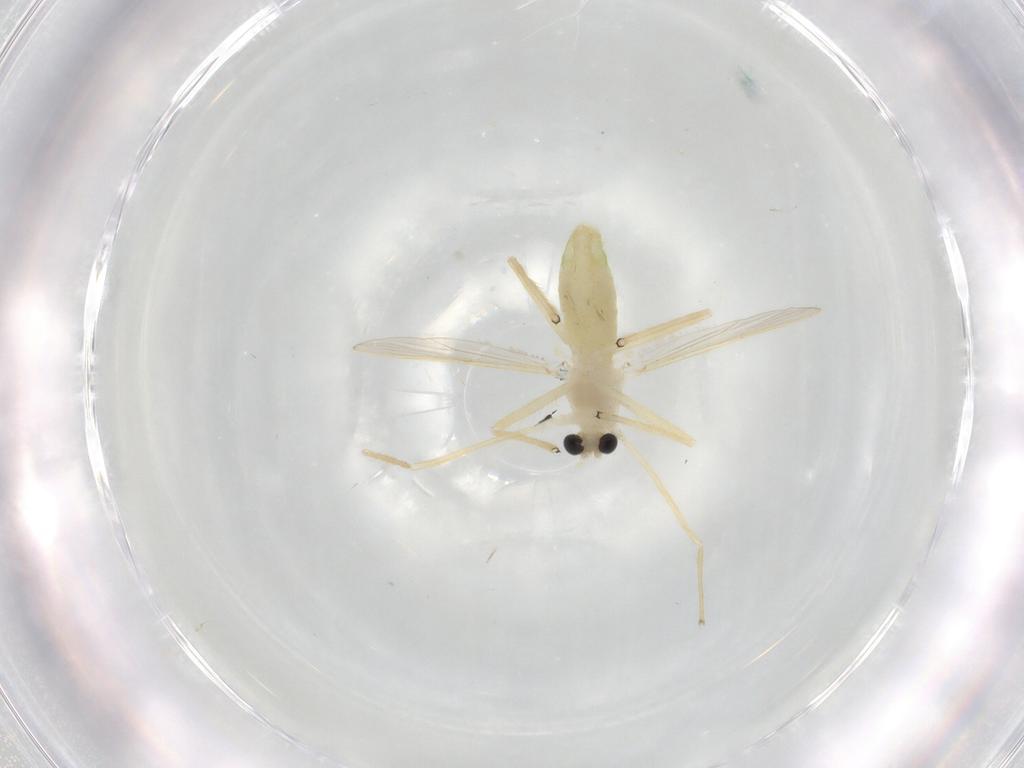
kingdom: Animalia
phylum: Arthropoda
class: Insecta
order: Diptera
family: Chironomidae
